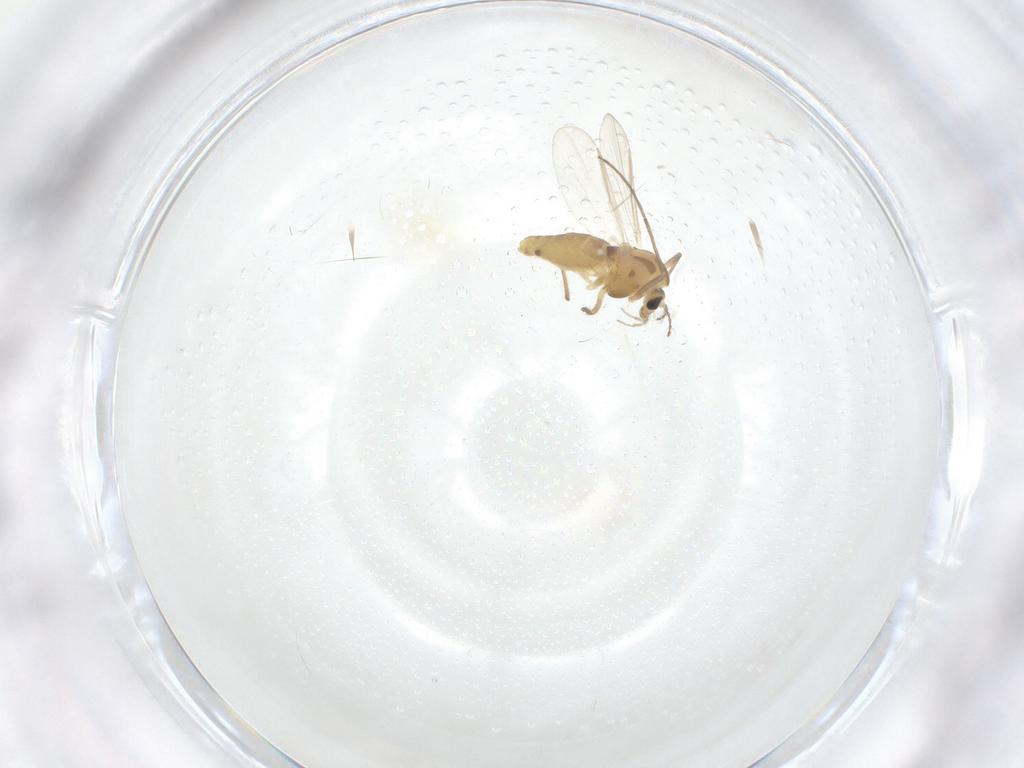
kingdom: Animalia
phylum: Arthropoda
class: Insecta
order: Diptera
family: Chironomidae
